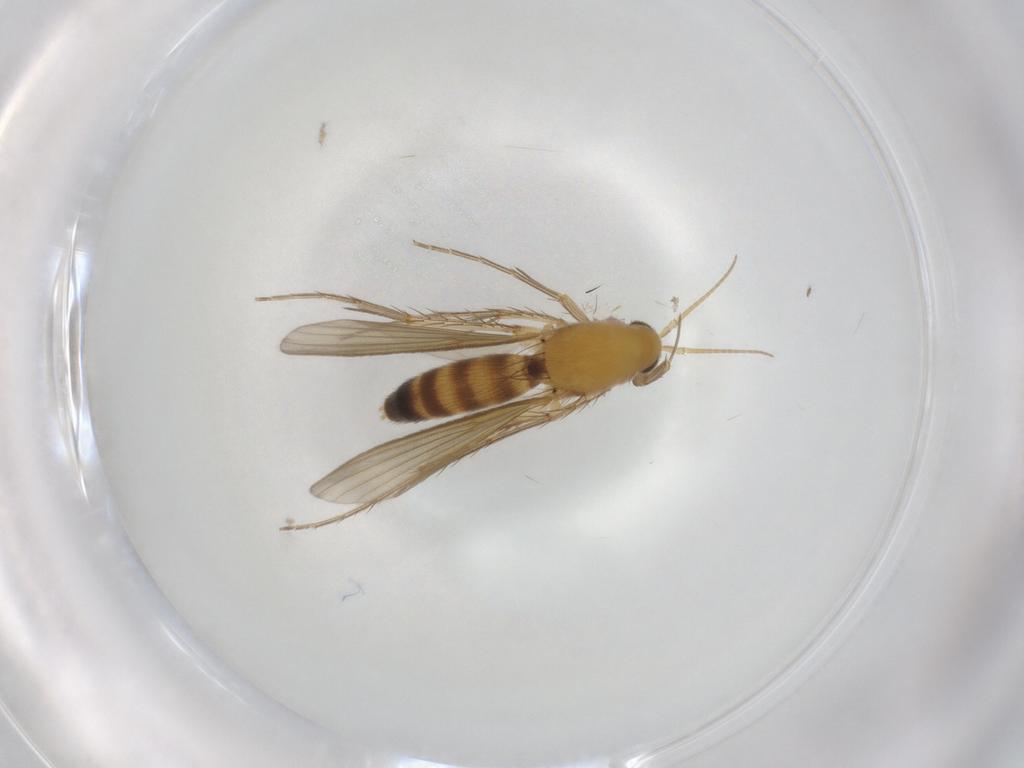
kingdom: Animalia
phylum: Arthropoda
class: Insecta
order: Diptera
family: Mycetophilidae
